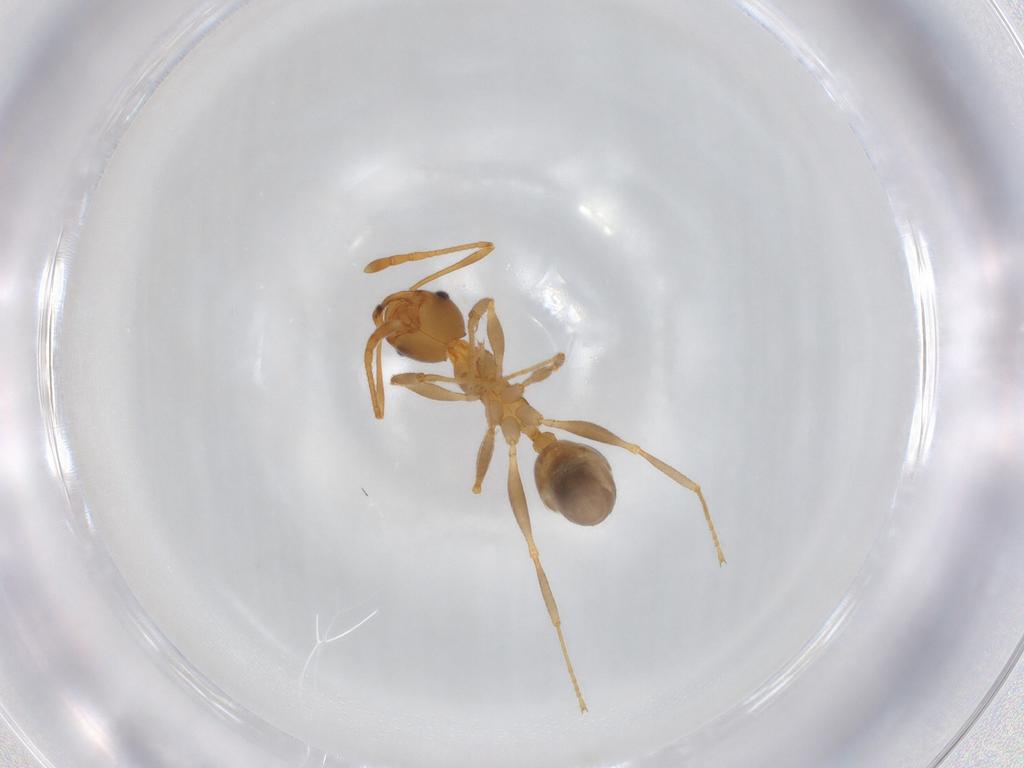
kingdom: Animalia
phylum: Arthropoda
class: Insecta
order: Hymenoptera
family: Formicidae
